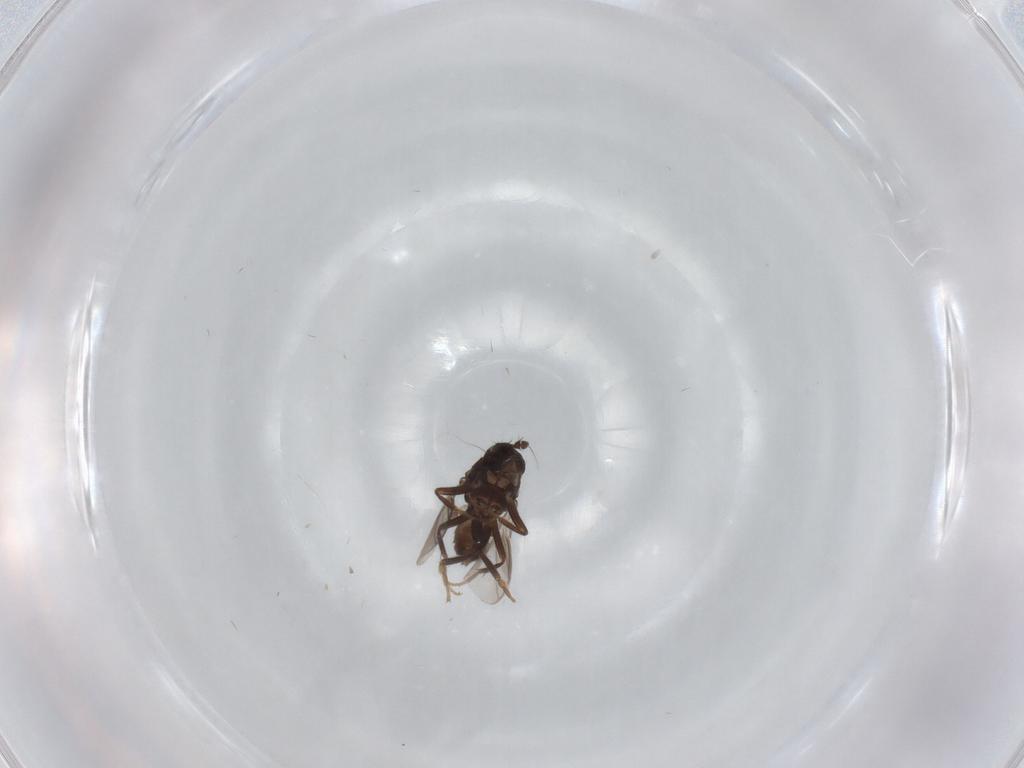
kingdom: Animalia
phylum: Arthropoda
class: Insecta
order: Diptera
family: Sphaeroceridae
